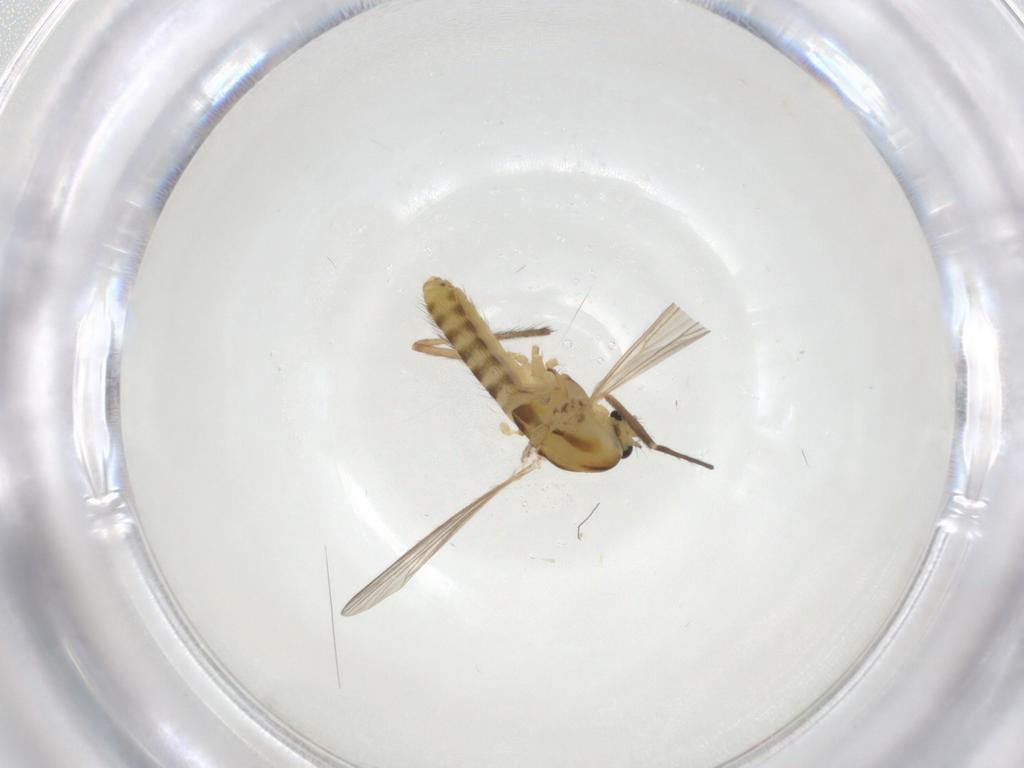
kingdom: Animalia
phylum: Arthropoda
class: Insecta
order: Diptera
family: Chironomidae
